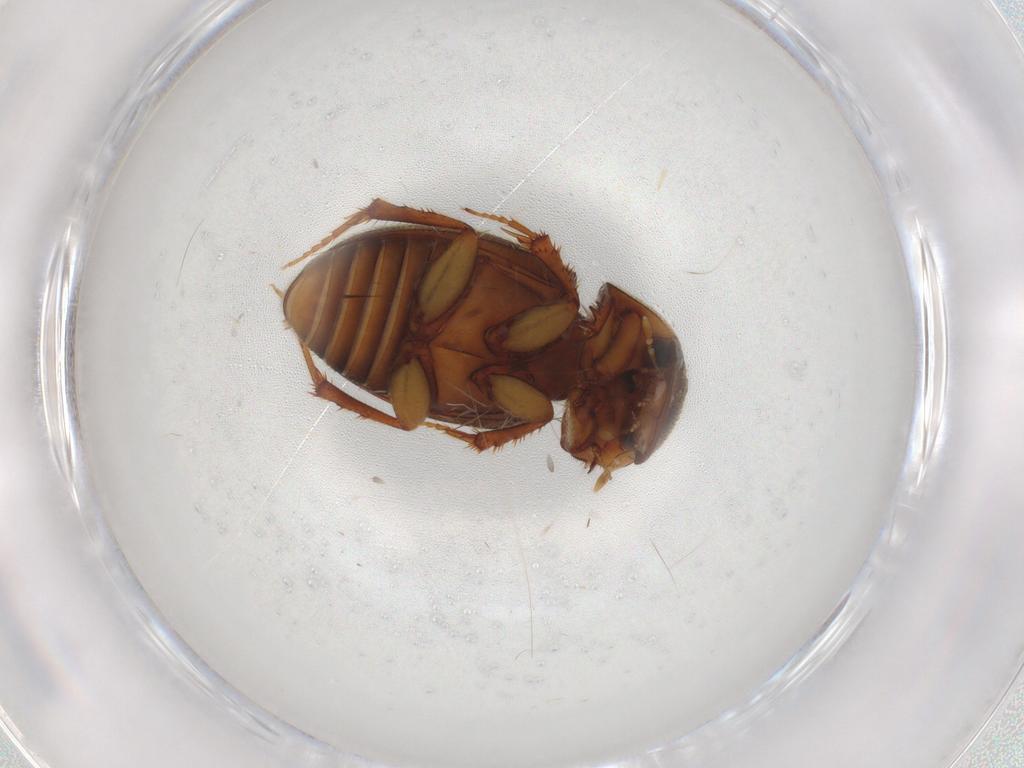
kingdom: Animalia
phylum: Arthropoda
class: Insecta
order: Coleoptera
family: Scarabaeidae
